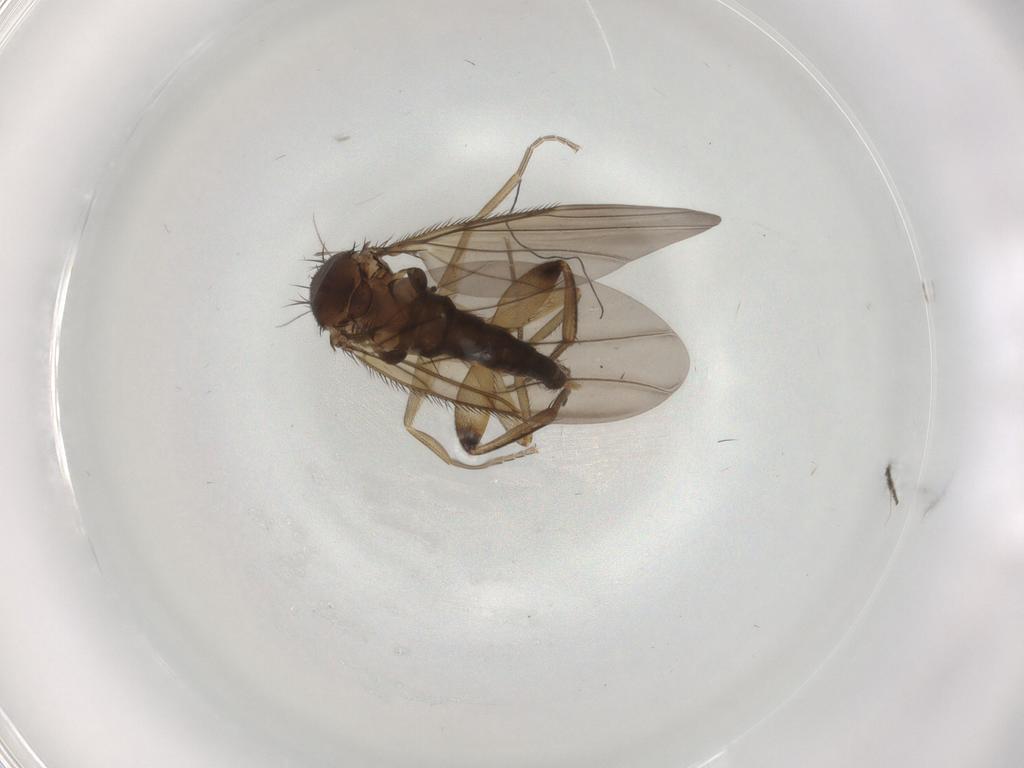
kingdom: Animalia
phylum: Arthropoda
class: Insecta
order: Diptera
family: Phoridae
